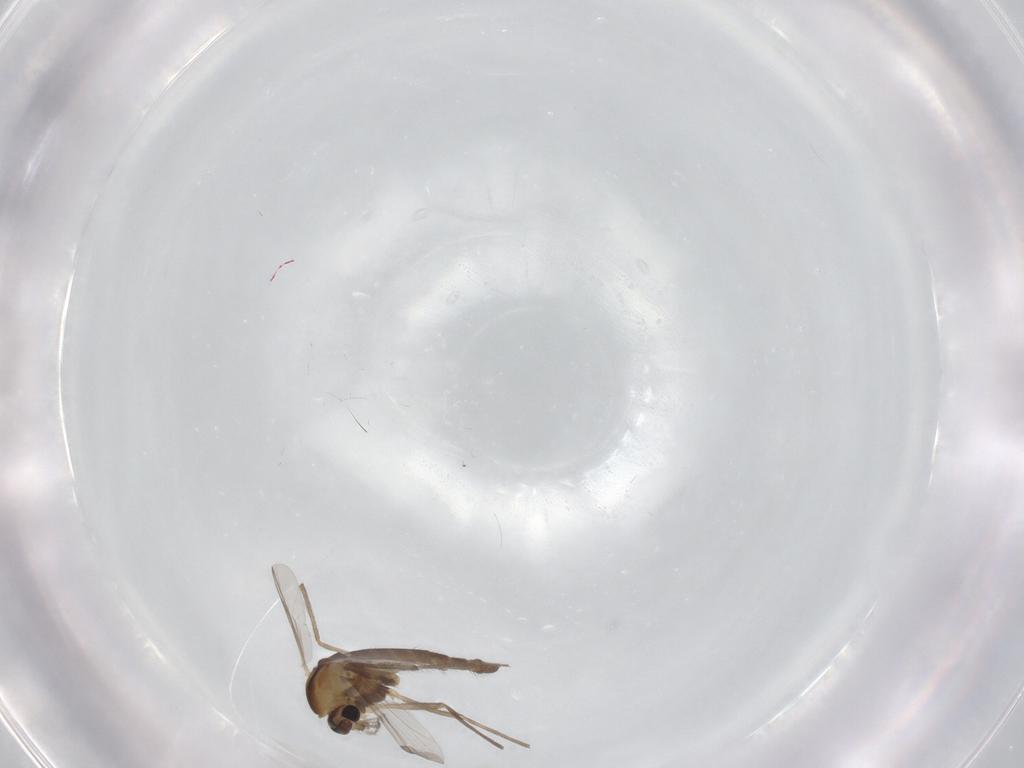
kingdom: Animalia
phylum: Arthropoda
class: Insecta
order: Diptera
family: Chironomidae
